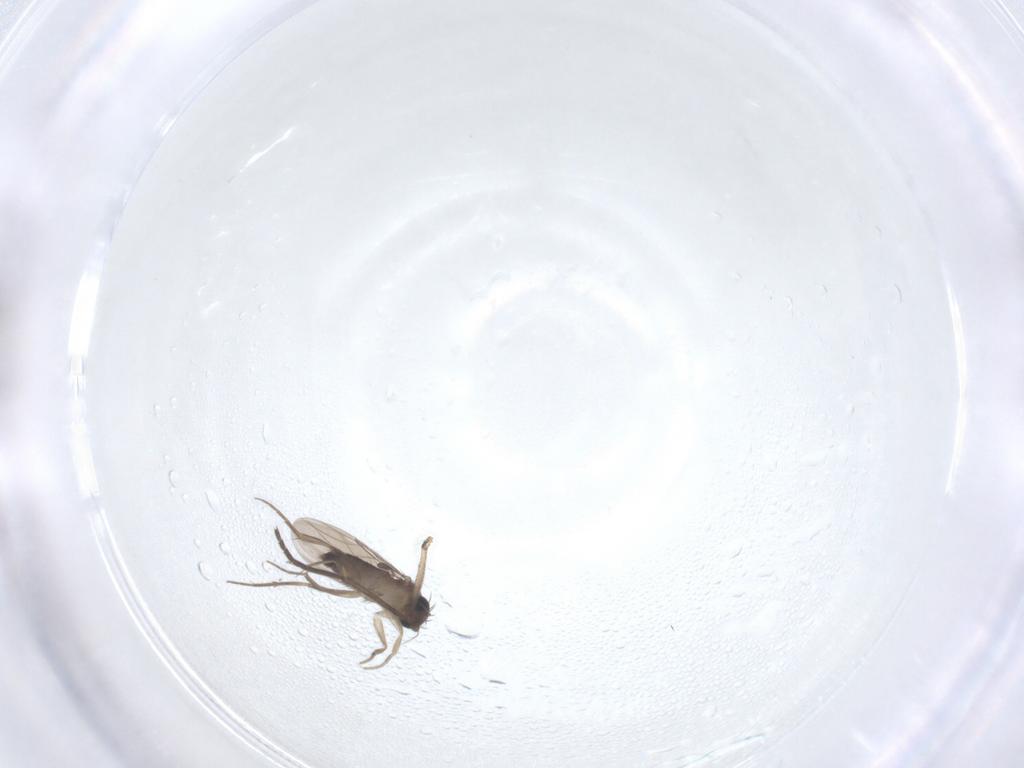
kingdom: Animalia
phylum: Arthropoda
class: Insecta
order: Diptera
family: Phoridae
